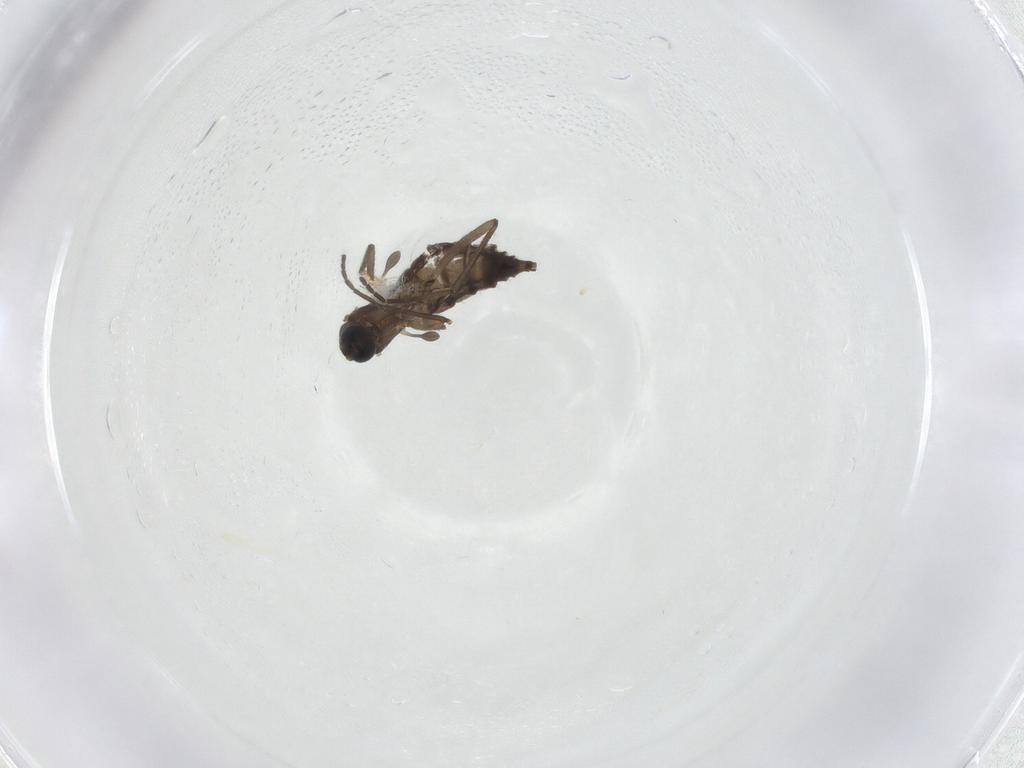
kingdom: Animalia
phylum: Arthropoda
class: Insecta
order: Diptera
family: Sciaridae
